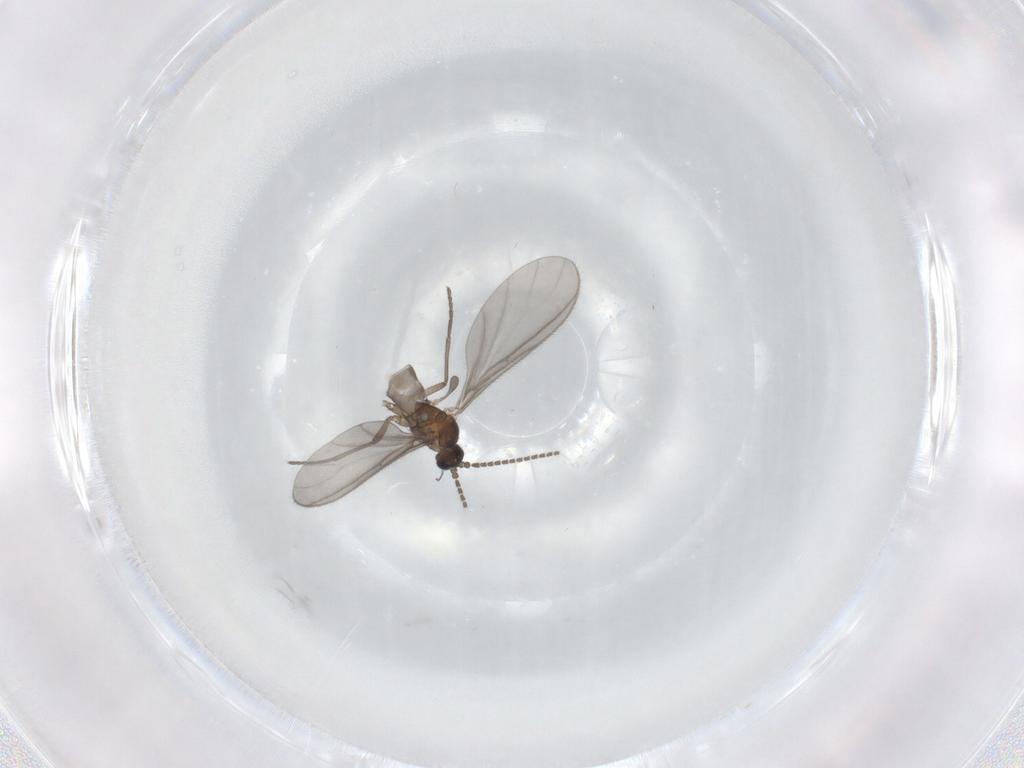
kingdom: Animalia
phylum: Arthropoda
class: Insecta
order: Diptera
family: Sciaridae
